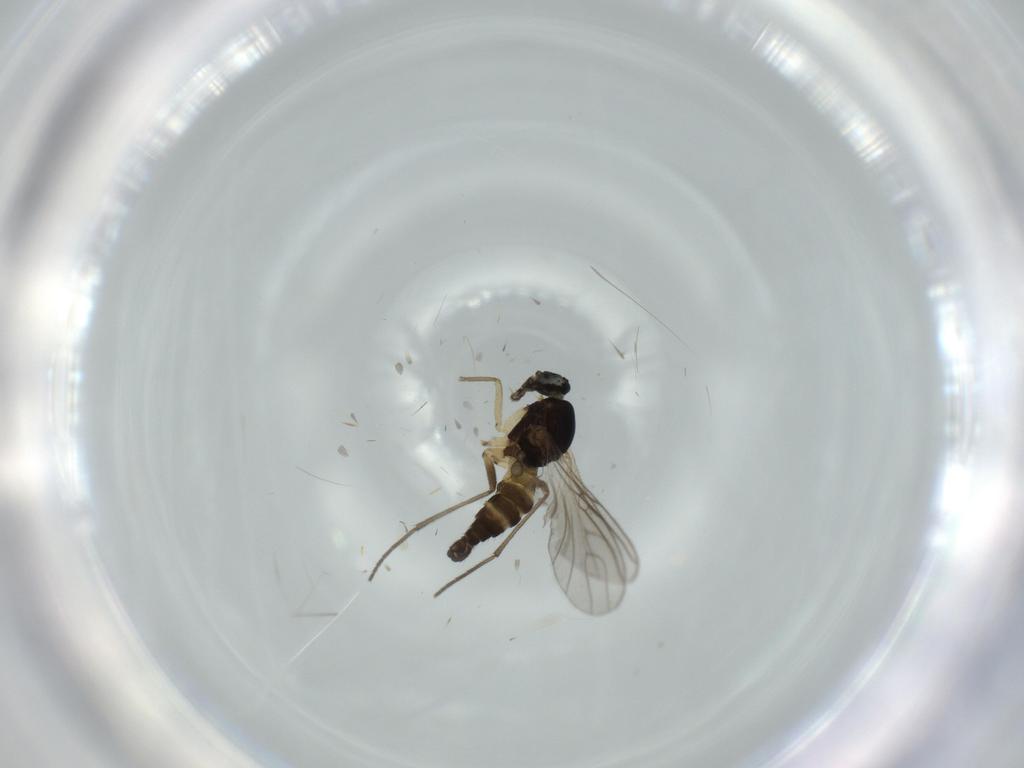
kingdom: Animalia
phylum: Arthropoda
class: Insecta
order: Diptera
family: Sciaridae
